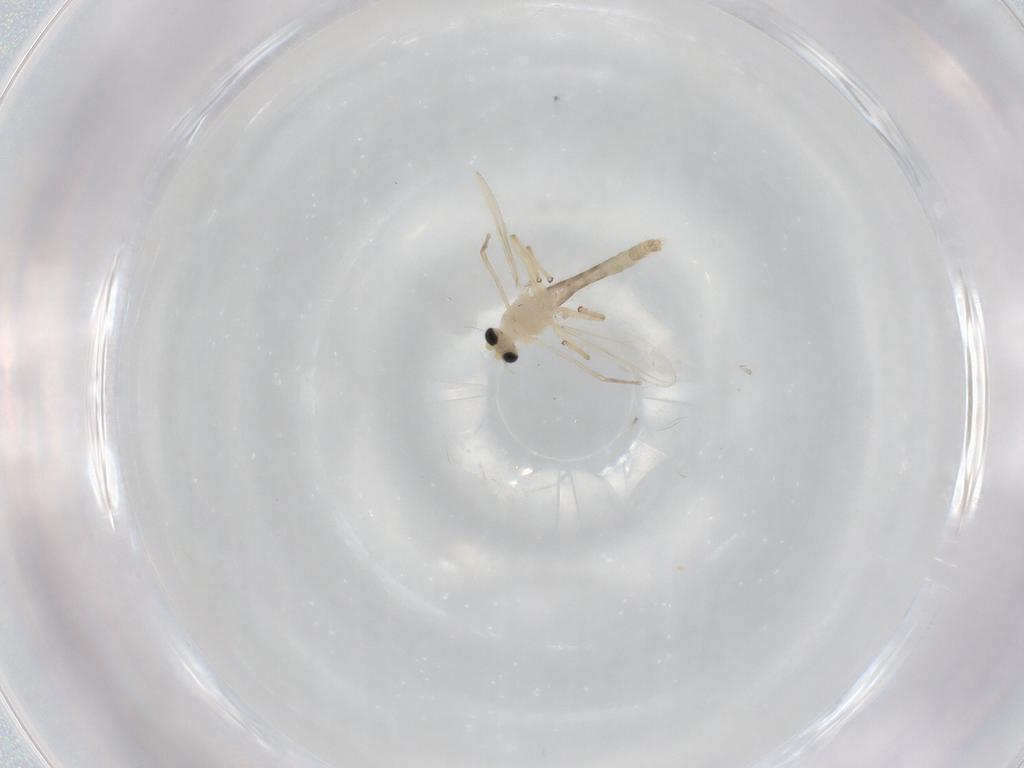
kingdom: Animalia
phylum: Arthropoda
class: Insecta
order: Diptera
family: Chironomidae
